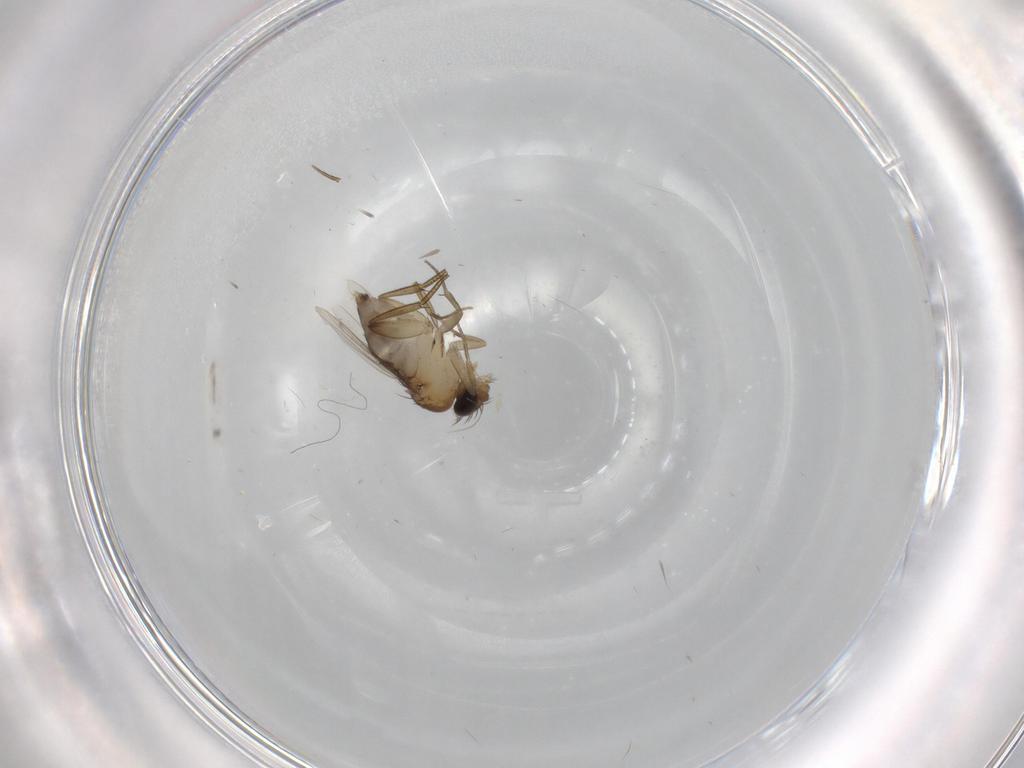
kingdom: Animalia
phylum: Arthropoda
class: Insecta
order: Diptera
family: Phoridae
